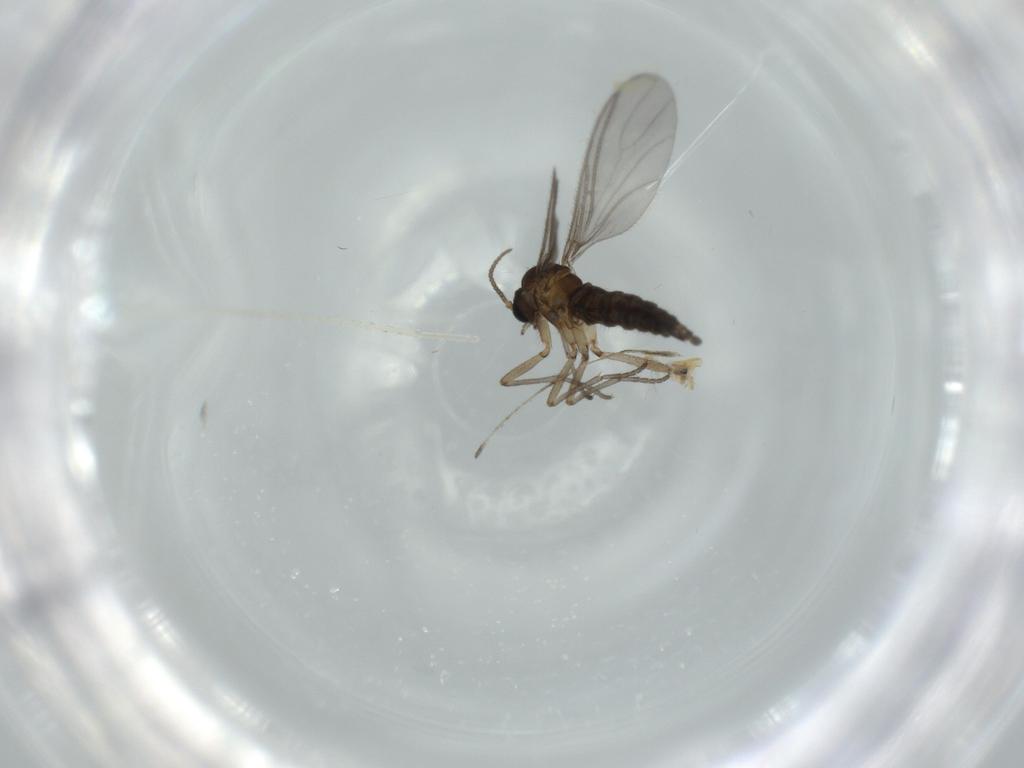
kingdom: Animalia
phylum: Arthropoda
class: Insecta
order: Diptera
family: Sciaridae
